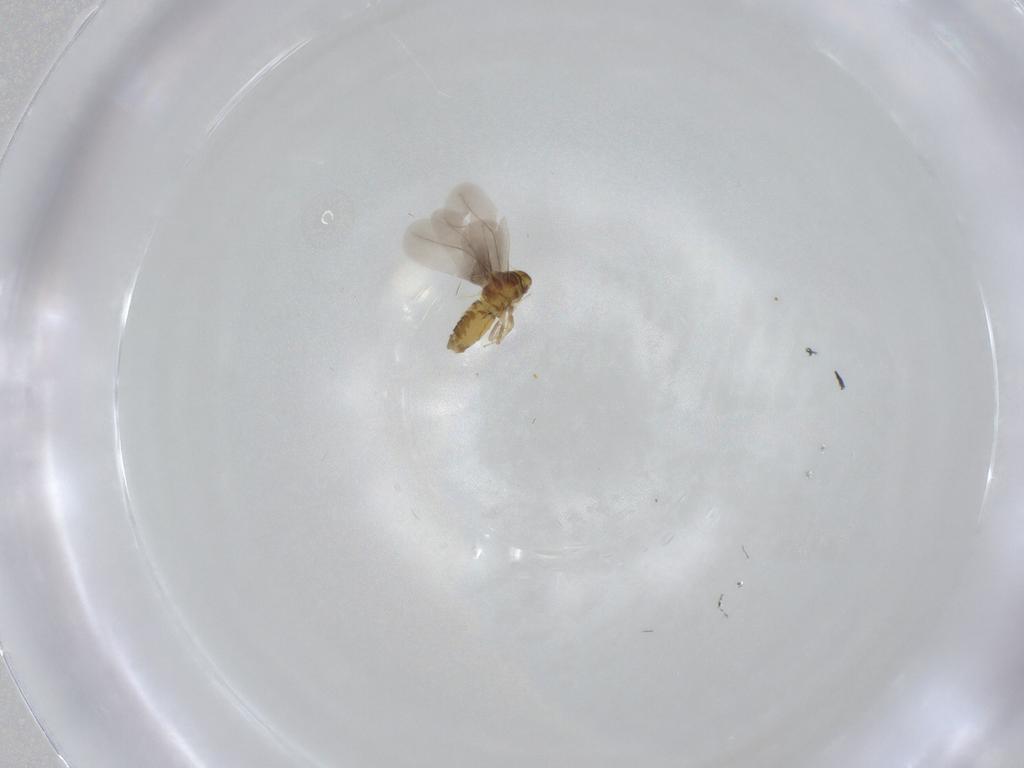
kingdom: Animalia
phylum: Arthropoda
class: Insecta
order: Hemiptera
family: Aleyrodidae
